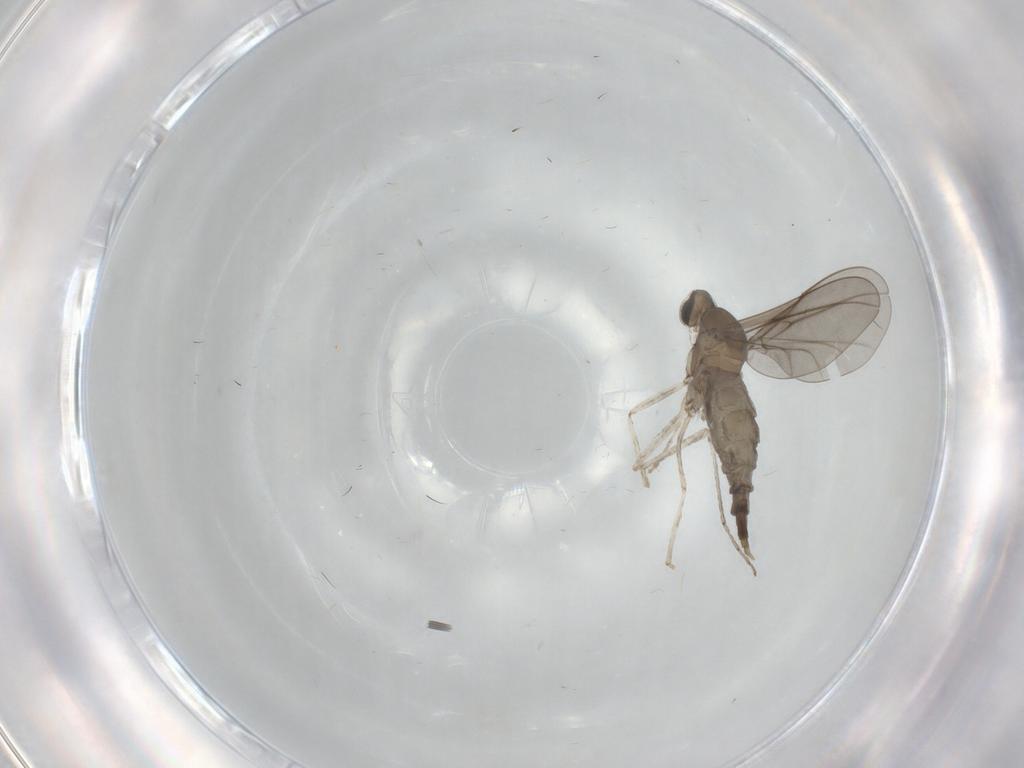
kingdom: Animalia
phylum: Arthropoda
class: Insecta
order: Diptera
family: Cecidomyiidae
